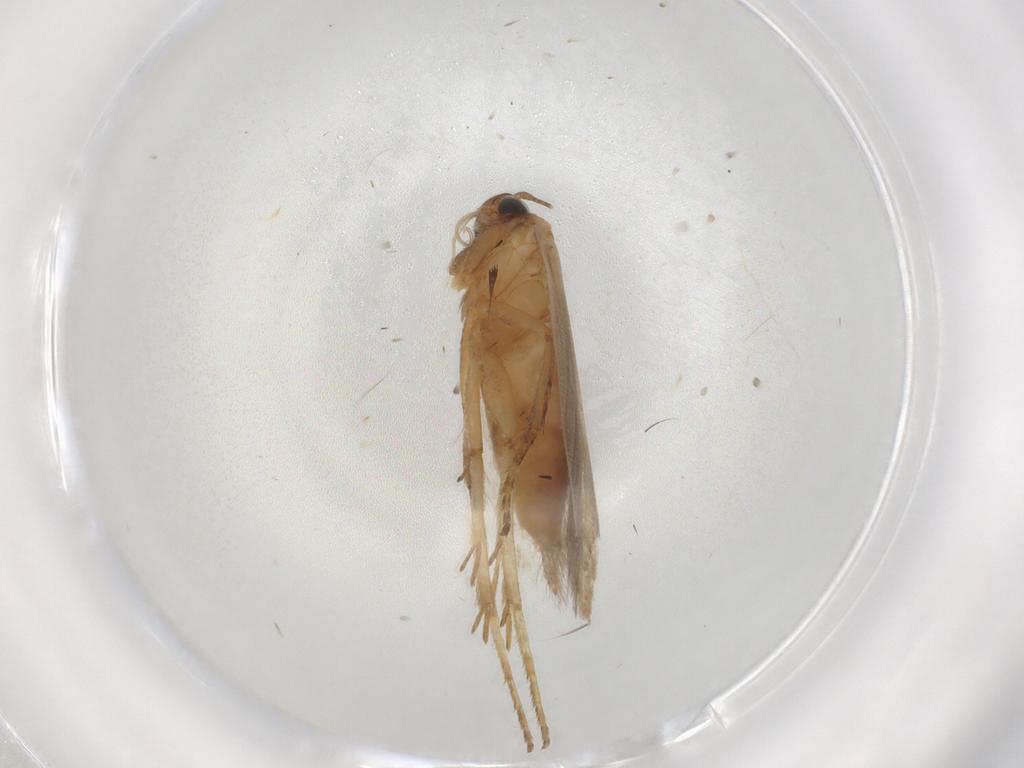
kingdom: Animalia
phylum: Arthropoda
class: Insecta
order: Lepidoptera
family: Gelechiidae
